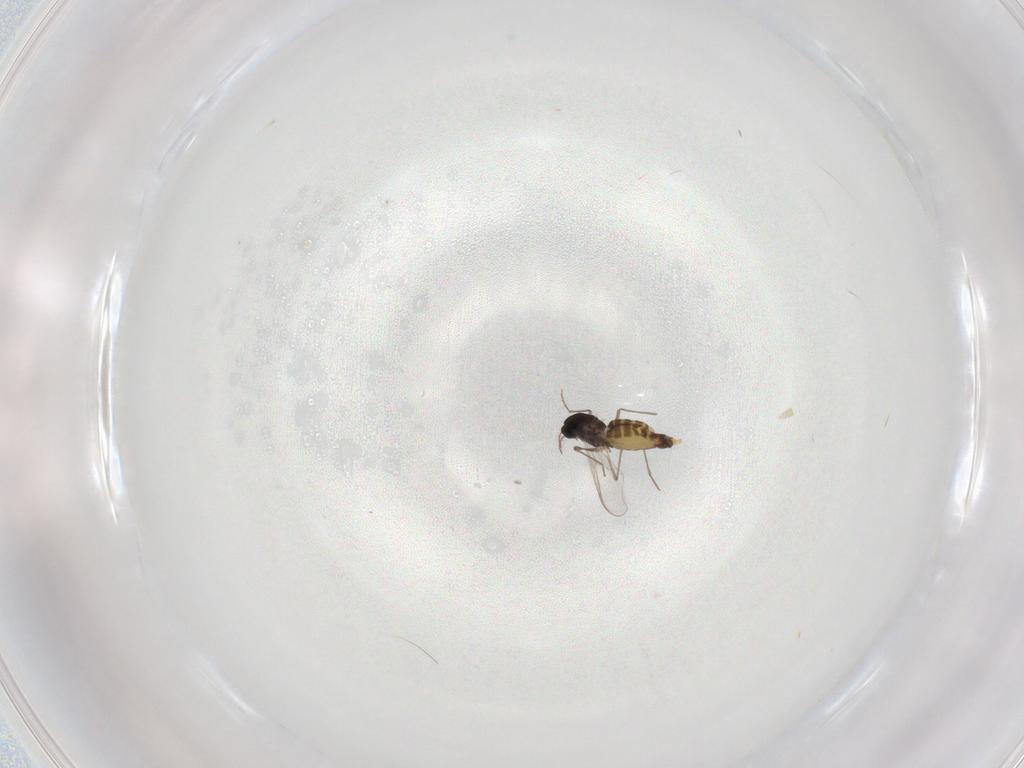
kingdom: Animalia
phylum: Arthropoda
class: Insecta
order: Diptera
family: Chironomidae
